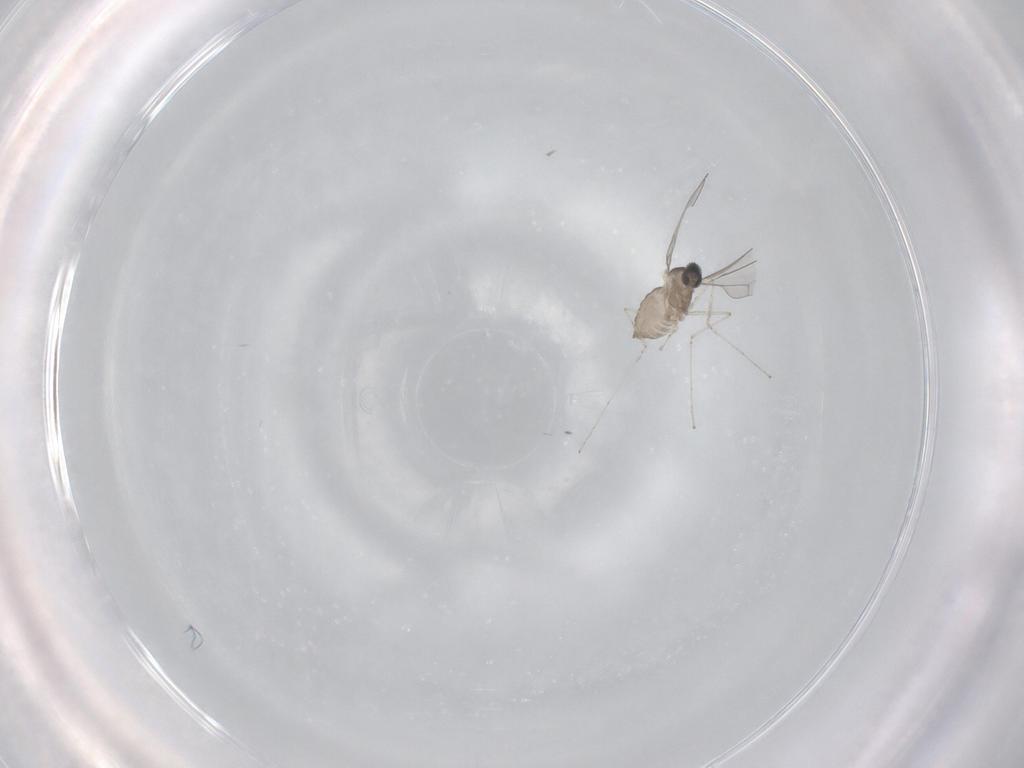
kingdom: Animalia
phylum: Arthropoda
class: Insecta
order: Diptera
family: Cecidomyiidae
